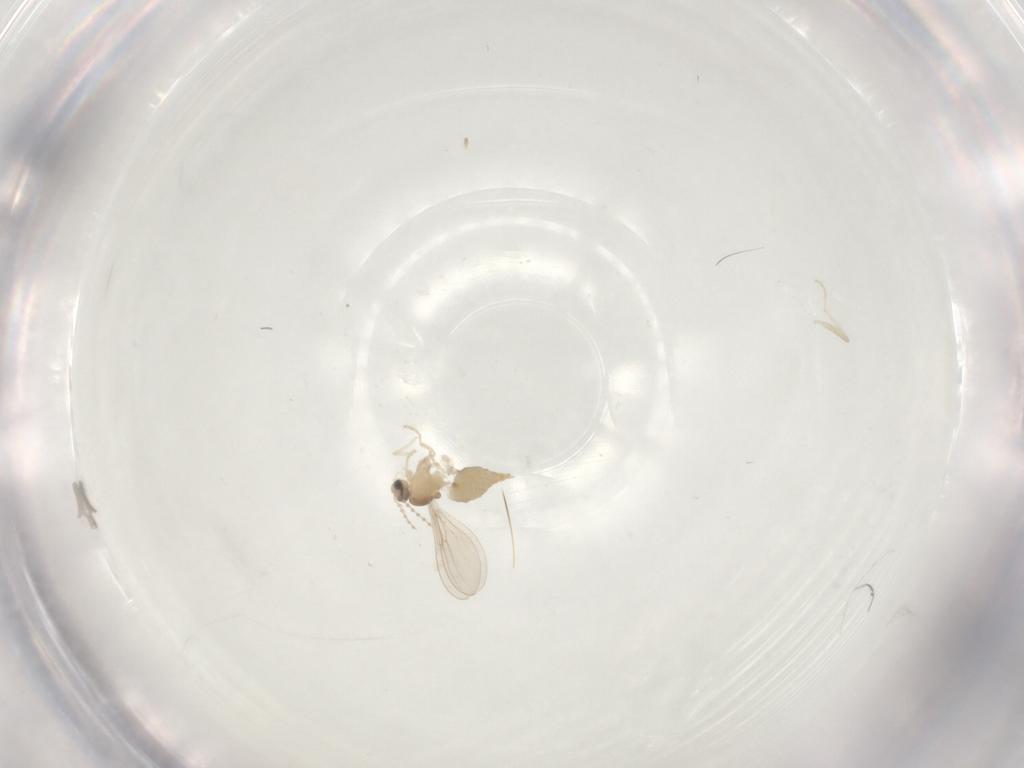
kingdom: Animalia
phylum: Arthropoda
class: Insecta
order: Diptera
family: Cecidomyiidae
